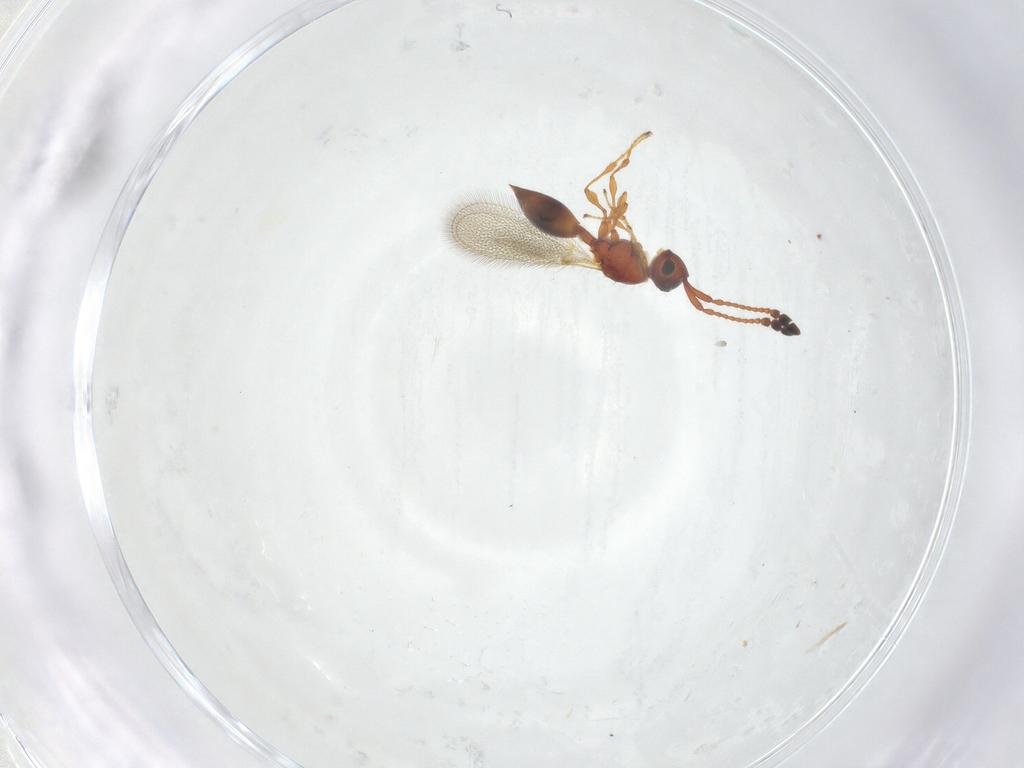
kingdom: Animalia
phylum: Arthropoda
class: Insecta
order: Hymenoptera
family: Diapriidae
